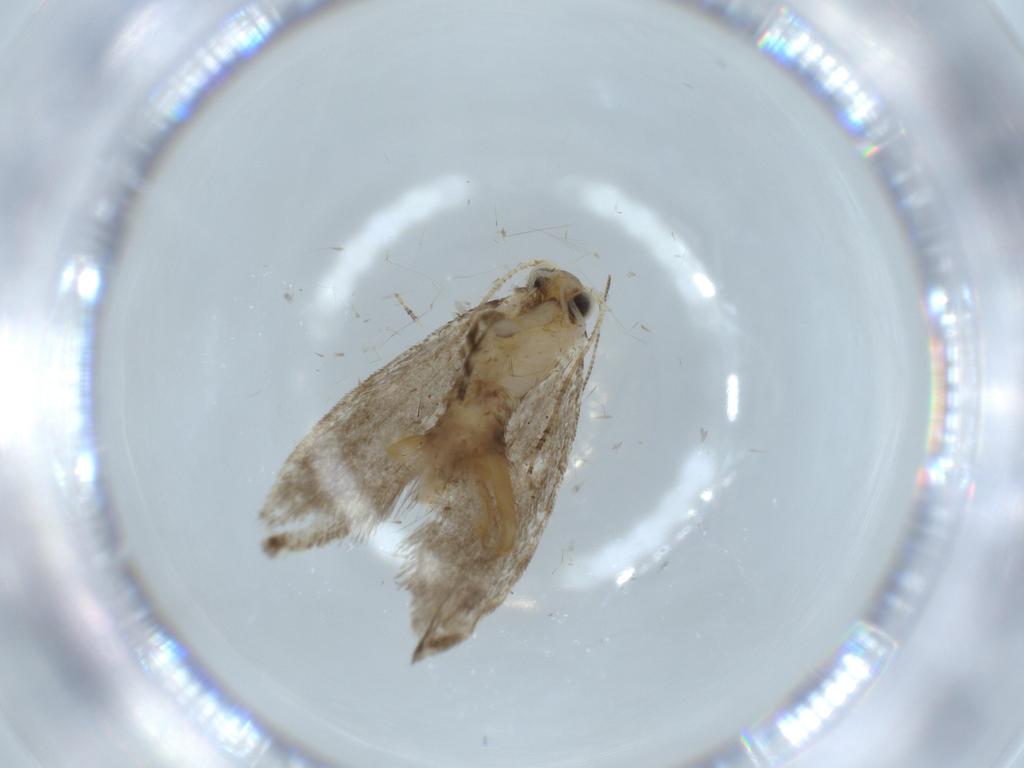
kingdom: Animalia
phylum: Arthropoda
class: Insecta
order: Lepidoptera
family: Tineidae
